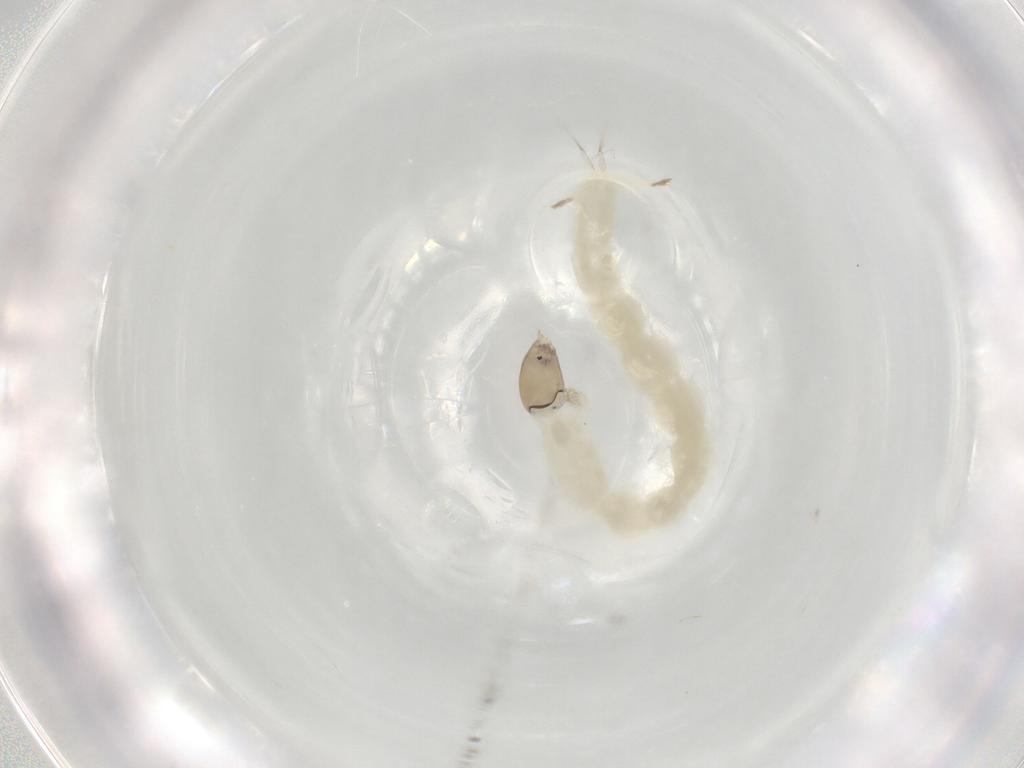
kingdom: Animalia
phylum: Arthropoda
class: Insecta
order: Diptera
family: Chironomidae
